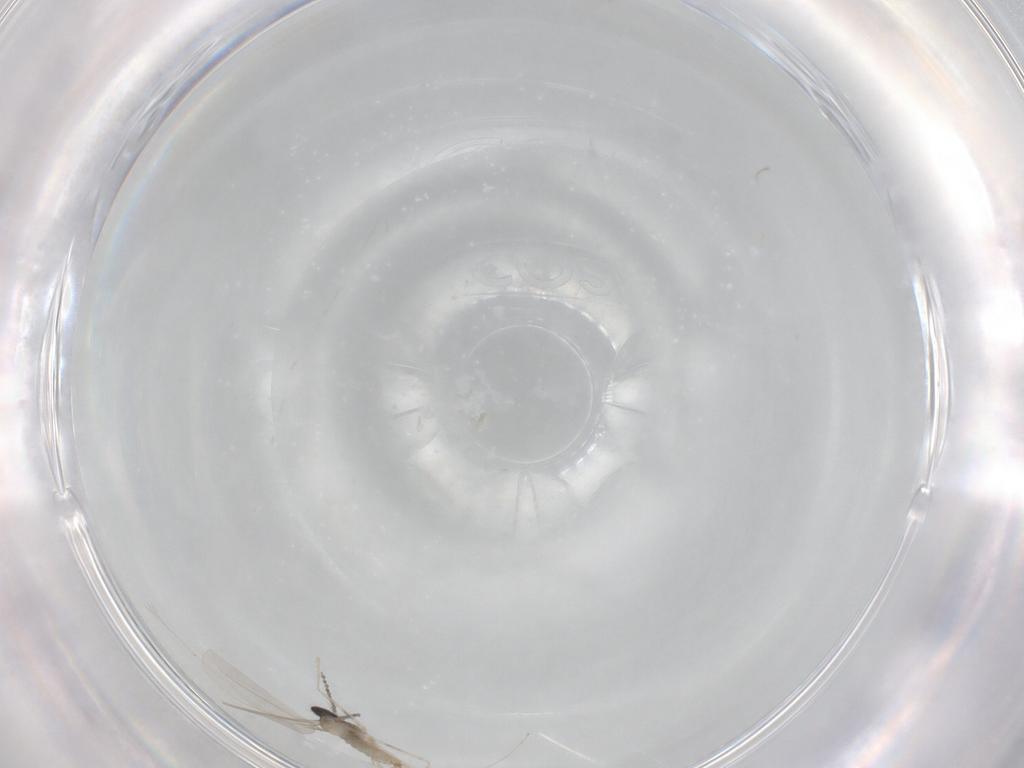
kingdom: Animalia
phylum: Arthropoda
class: Insecta
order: Diptera
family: Cecidomyiidae
